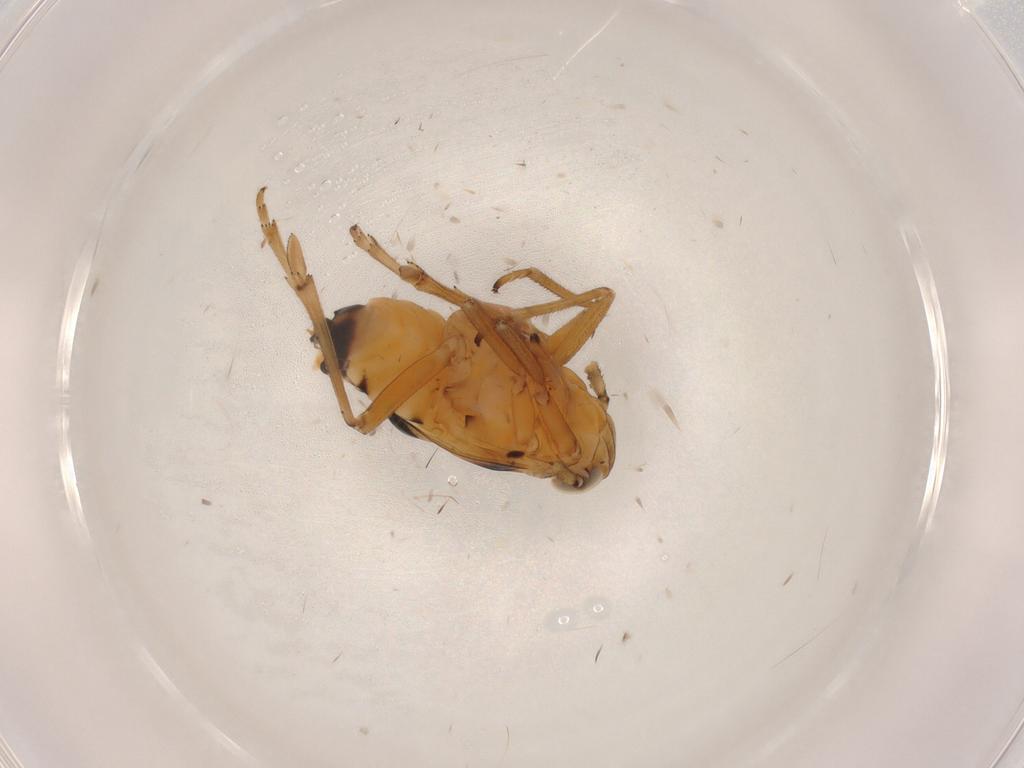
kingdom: Animalia
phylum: Arthropoda
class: Insecta
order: Hemiptera
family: Delphacidae
